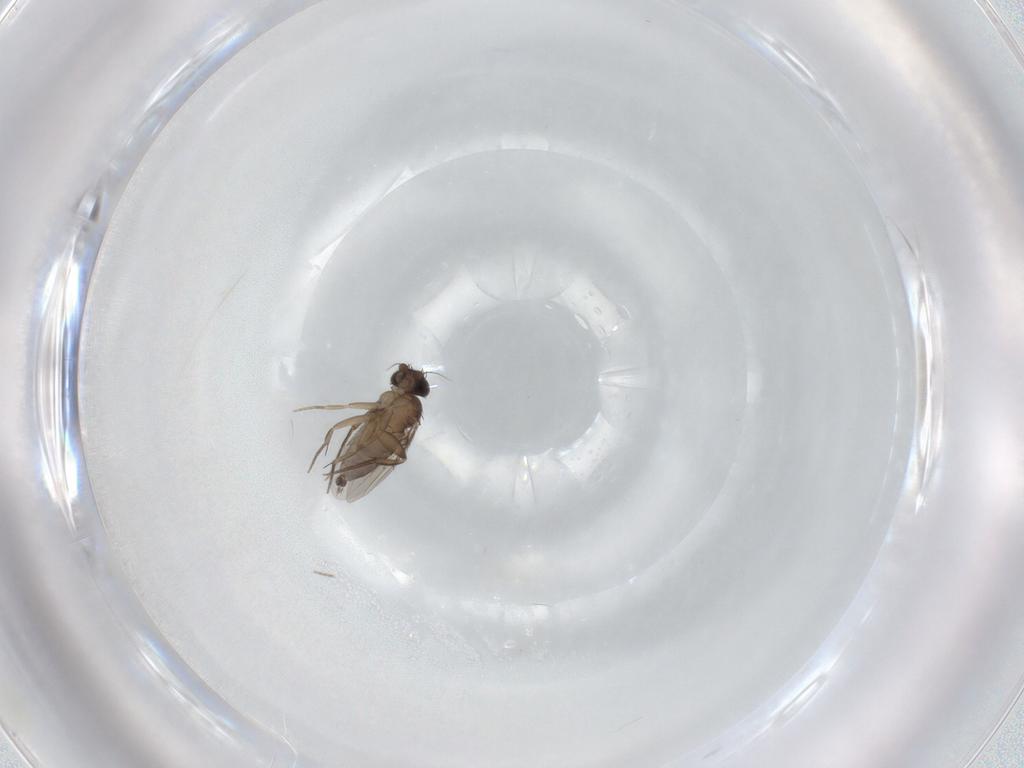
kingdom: Animalia
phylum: Arthropoda
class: Insecta
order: Diptera
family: Phoridae
